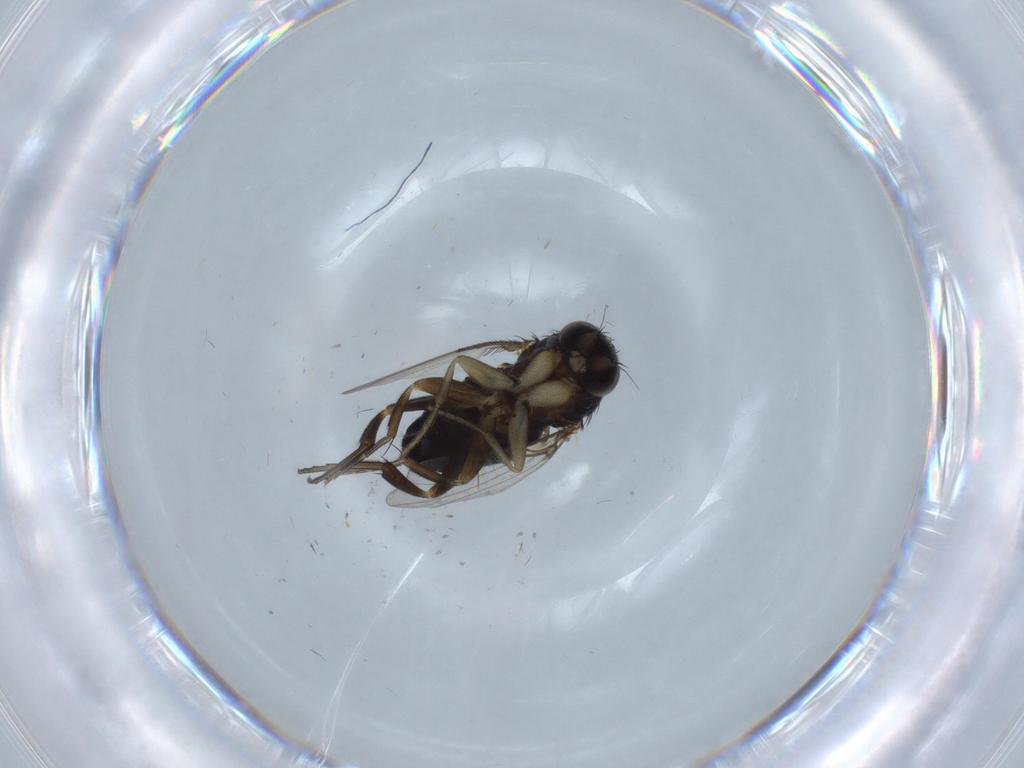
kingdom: Animalia
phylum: Arthropoda
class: Insecta
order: Diptera
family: Phoridae
